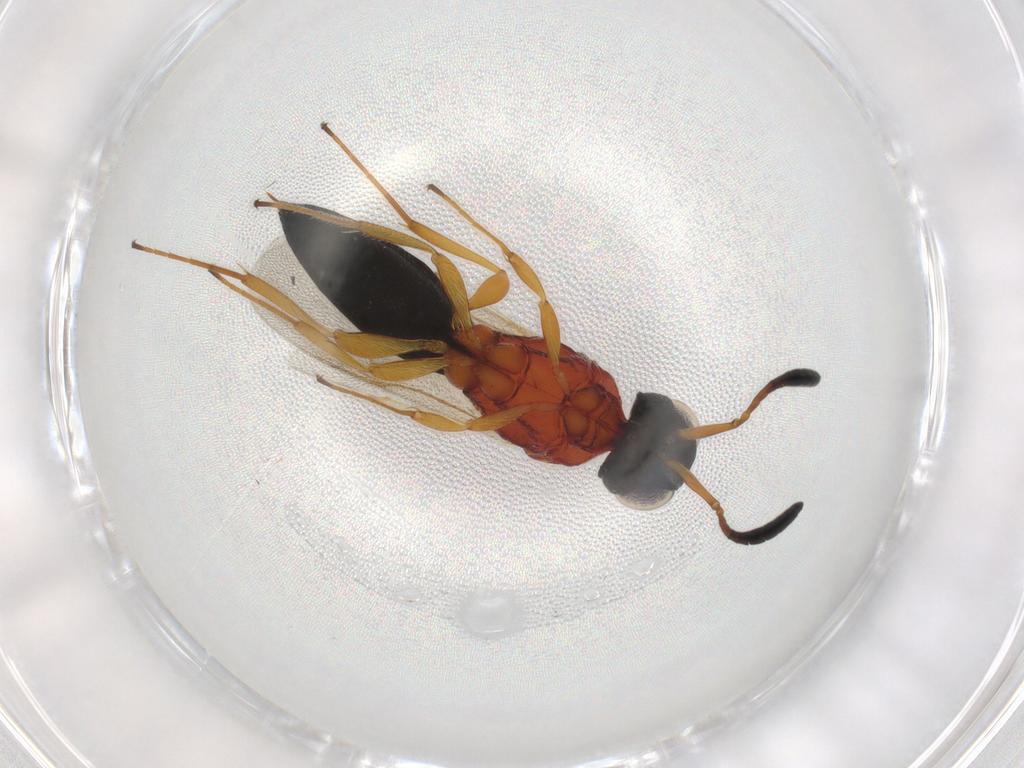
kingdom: Animalia
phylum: Arthropoda
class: Insecta
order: Hymenoptera
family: Scelionidae
